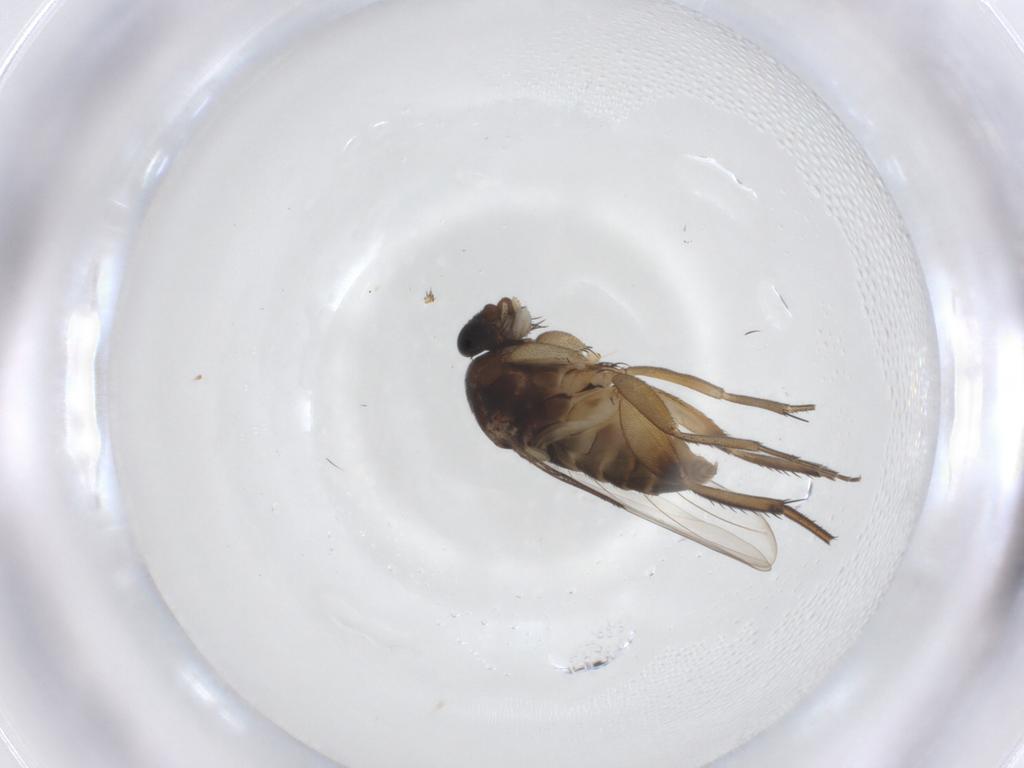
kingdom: Animalia
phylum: Arthropoda
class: Insecta
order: Diptera
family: Phoridae
